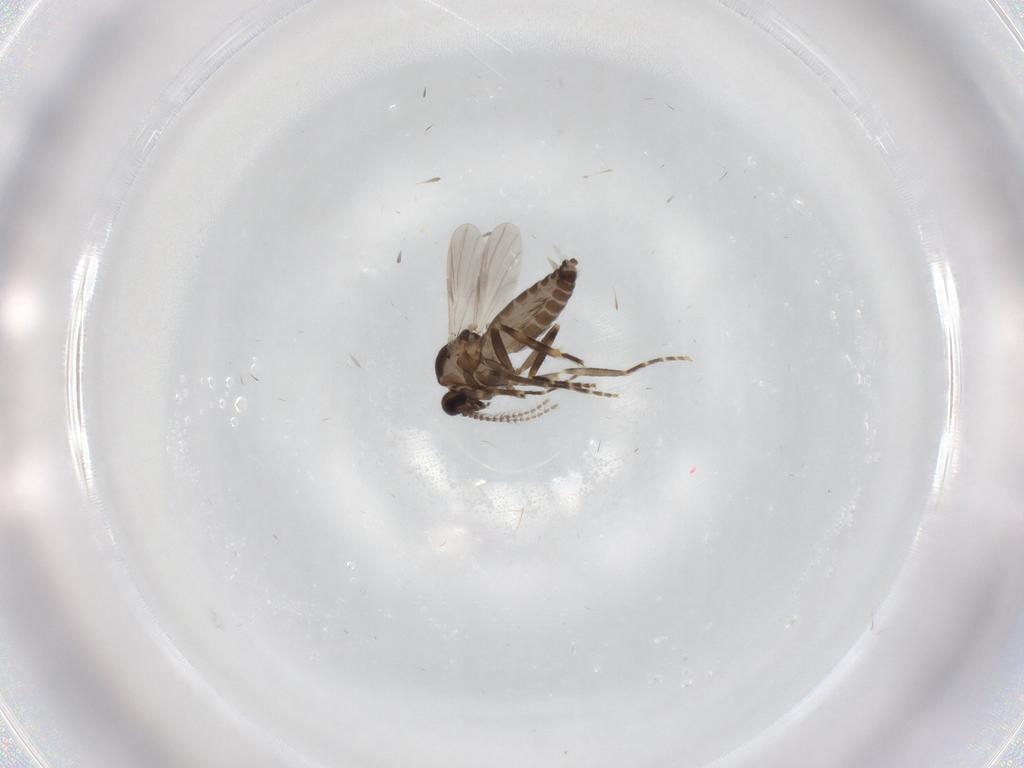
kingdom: Animalia
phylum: Arthropoda
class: Insecta
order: Diptera
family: Ceratopogonidae
